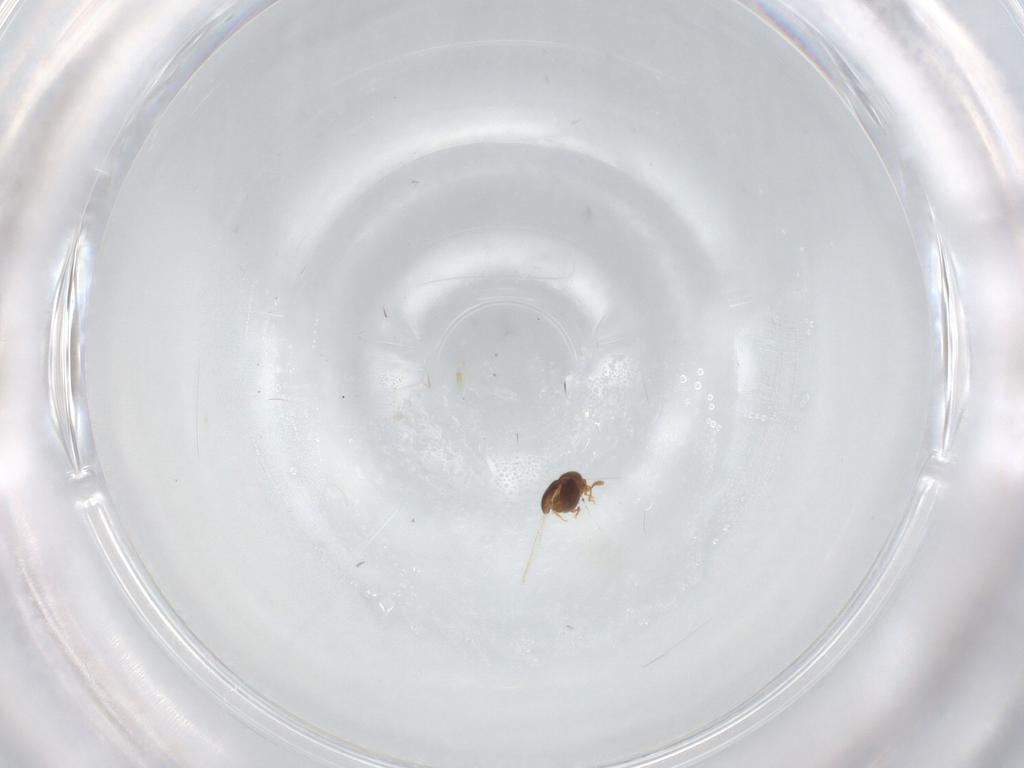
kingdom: Animalia
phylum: Arthropoda
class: Insecta
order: Coleoptera
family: Staphylinidae
